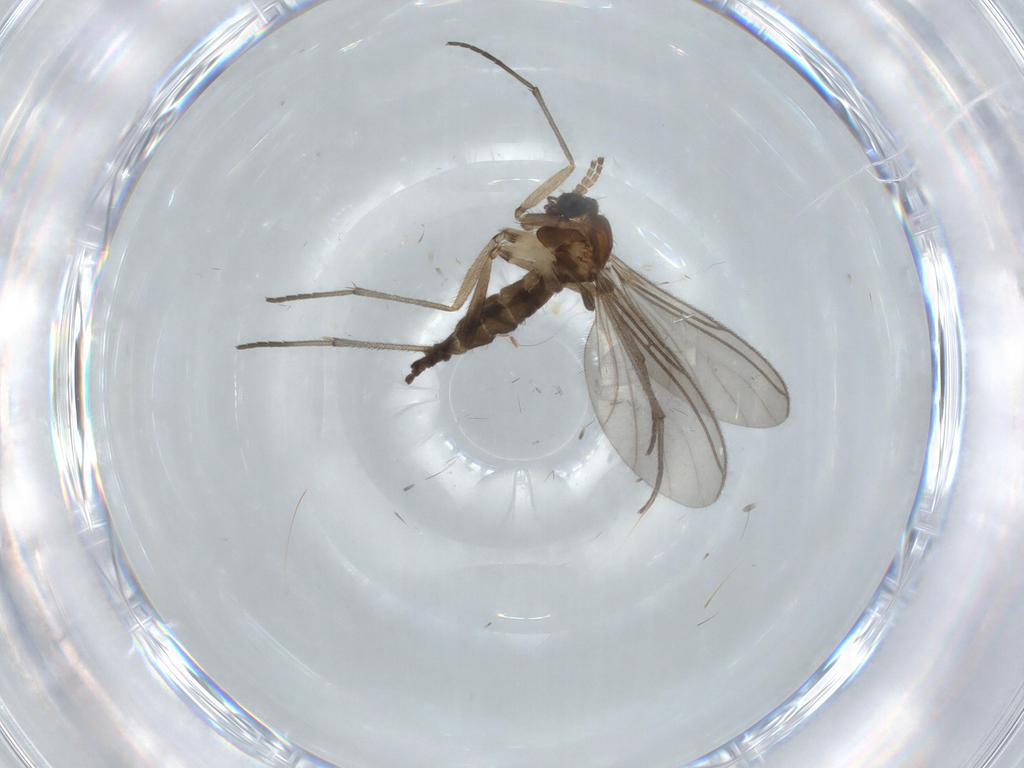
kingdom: Animalia
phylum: Arthropoda
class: Insecta
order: Diptera
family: Sciaridae
